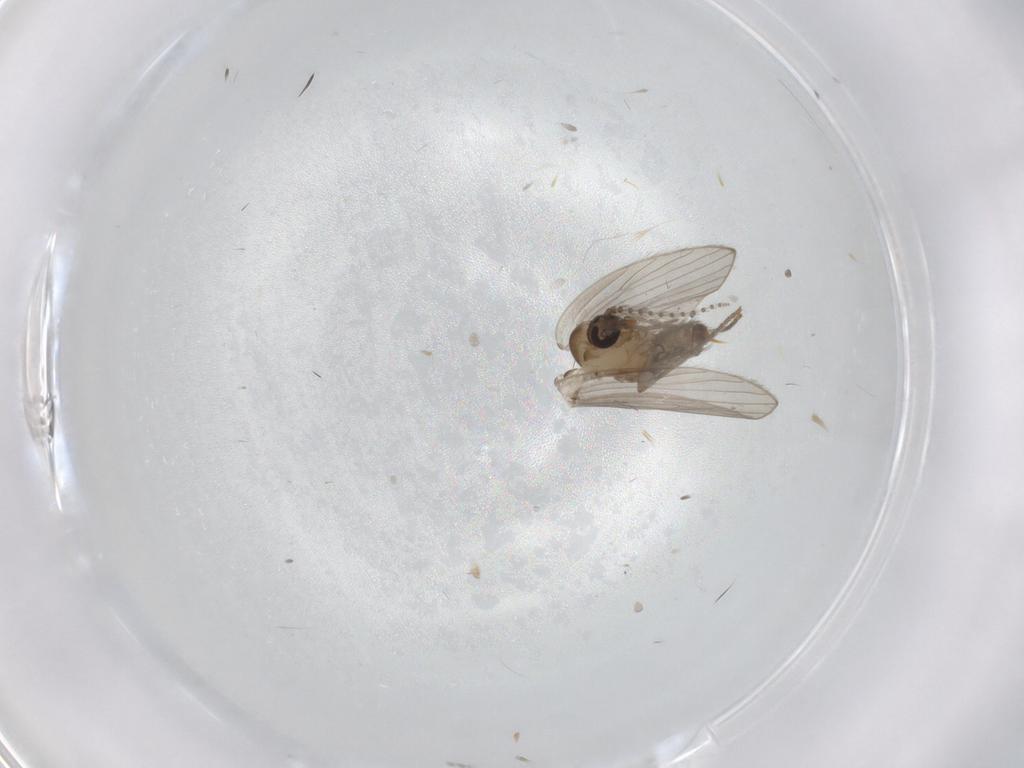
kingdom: Animalia
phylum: Arthropoda
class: Insecta
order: Diptera
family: Psychodidae
